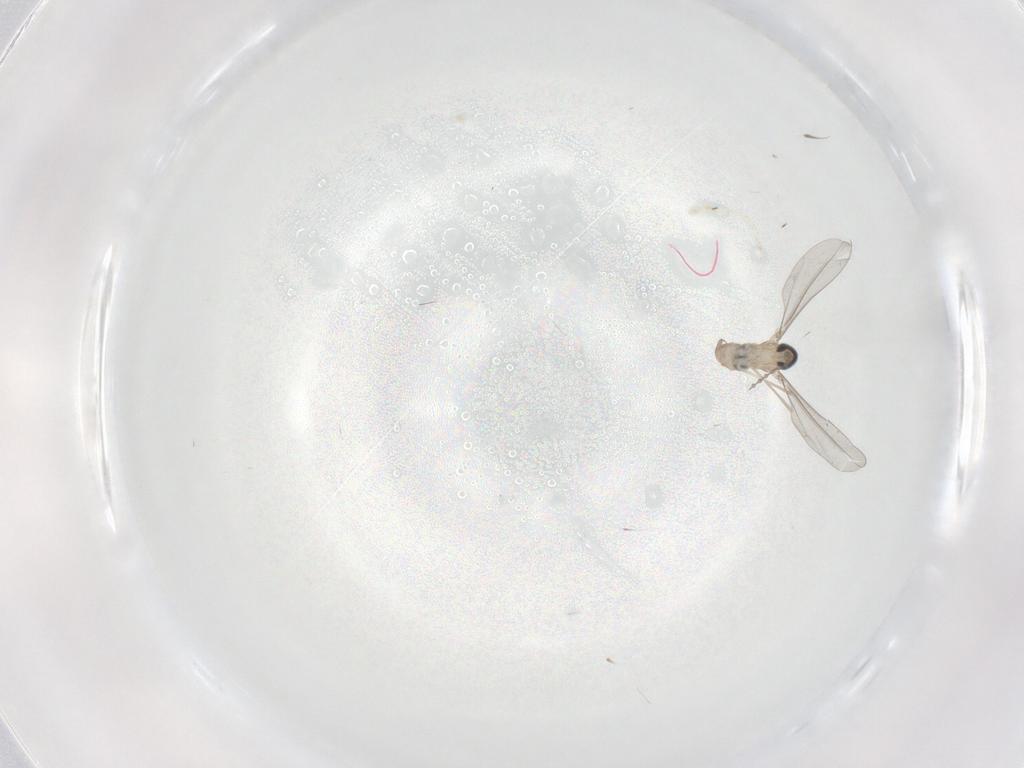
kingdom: Animalia
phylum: Arthropoda
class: Insecta
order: Diptera
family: Cecidomyiidae
